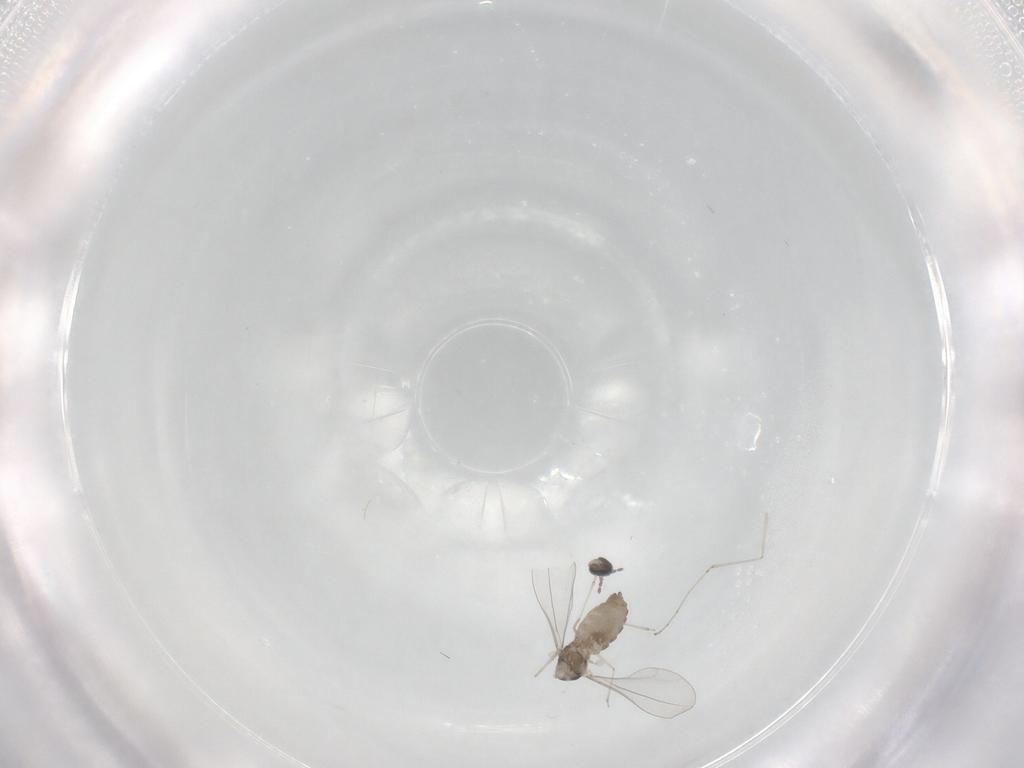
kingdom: Animalia
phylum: Arthropoda
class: Insecta
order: Diptera
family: Cecidomyiidae
